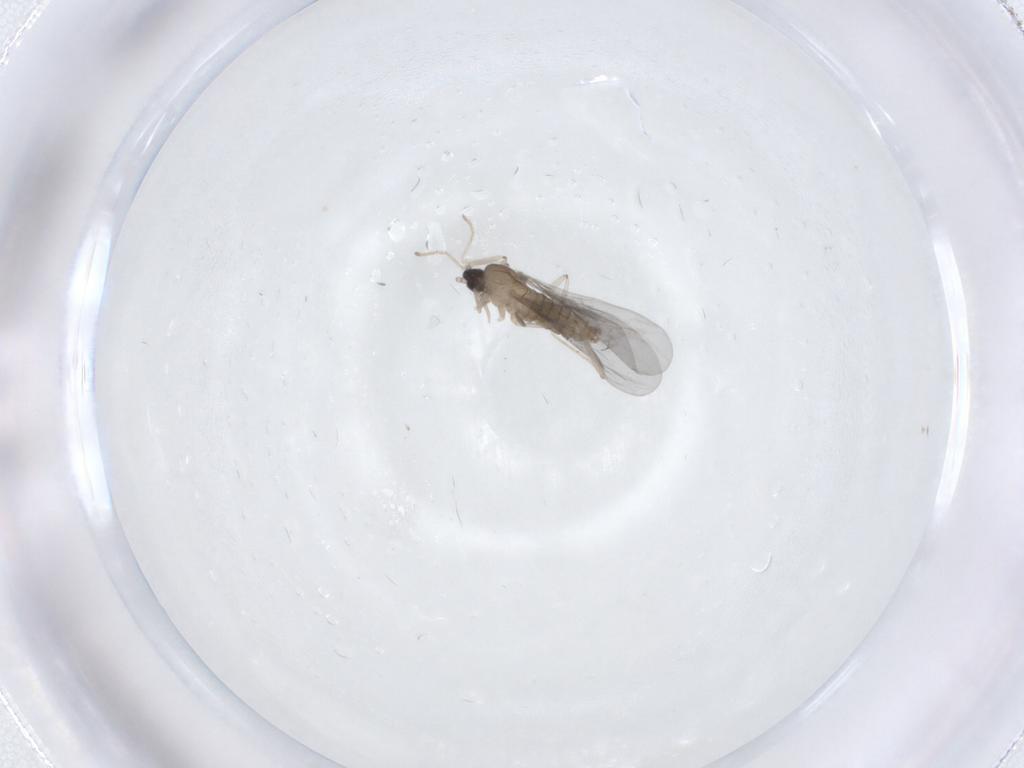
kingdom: Animalia
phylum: Arthropoda
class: Insecta
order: Diptera
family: Cecidomyiidae
